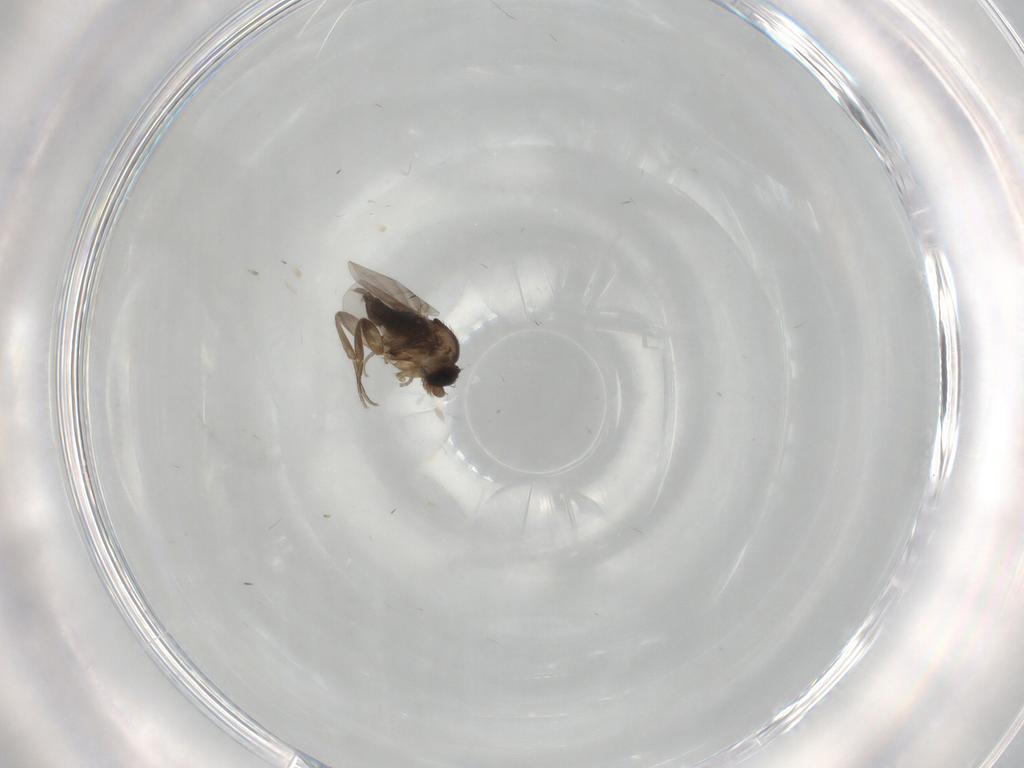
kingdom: Animalia
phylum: Arthropoda
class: Insecta
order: Diptera
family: Phoridae
